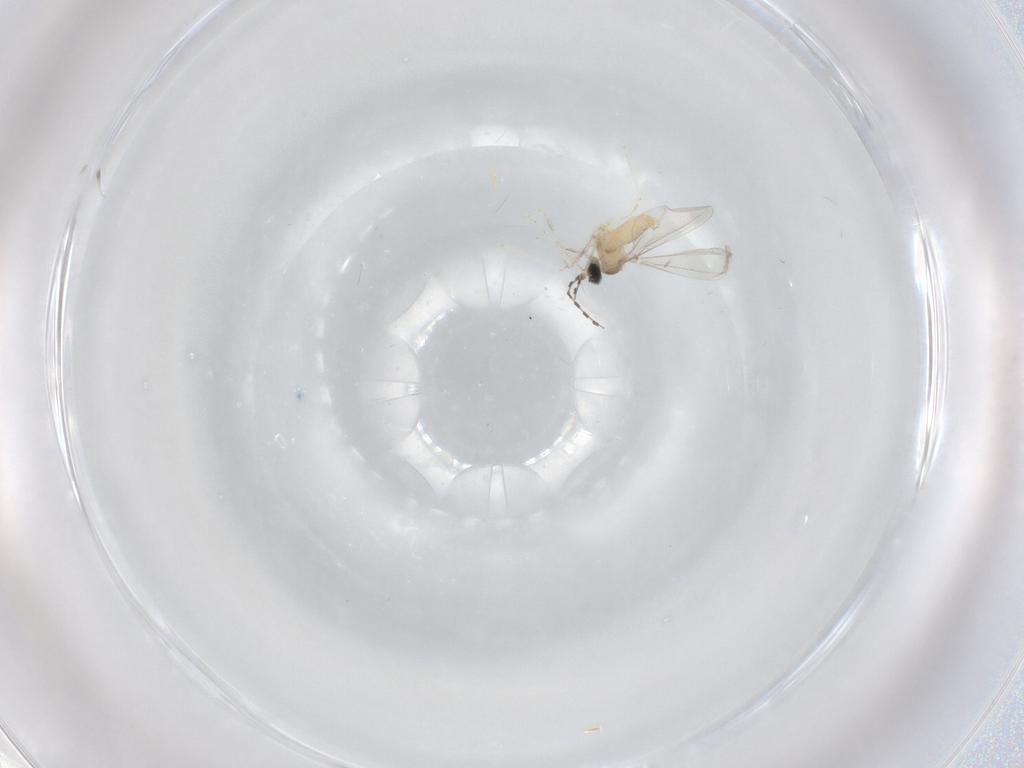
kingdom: Animalia
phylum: Arthropoda
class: Insecta
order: Diptera
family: Cecidomyiidae
